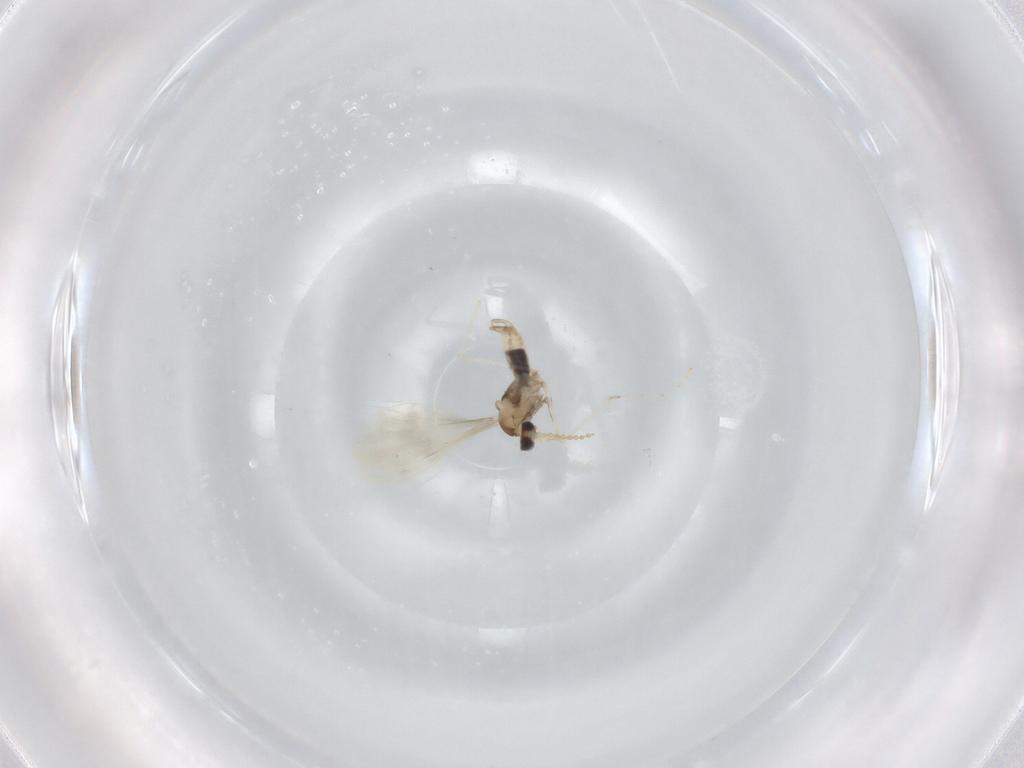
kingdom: Animalia
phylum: Arthropoda
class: Insecta
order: Diptera
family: Cecidomyiidae
